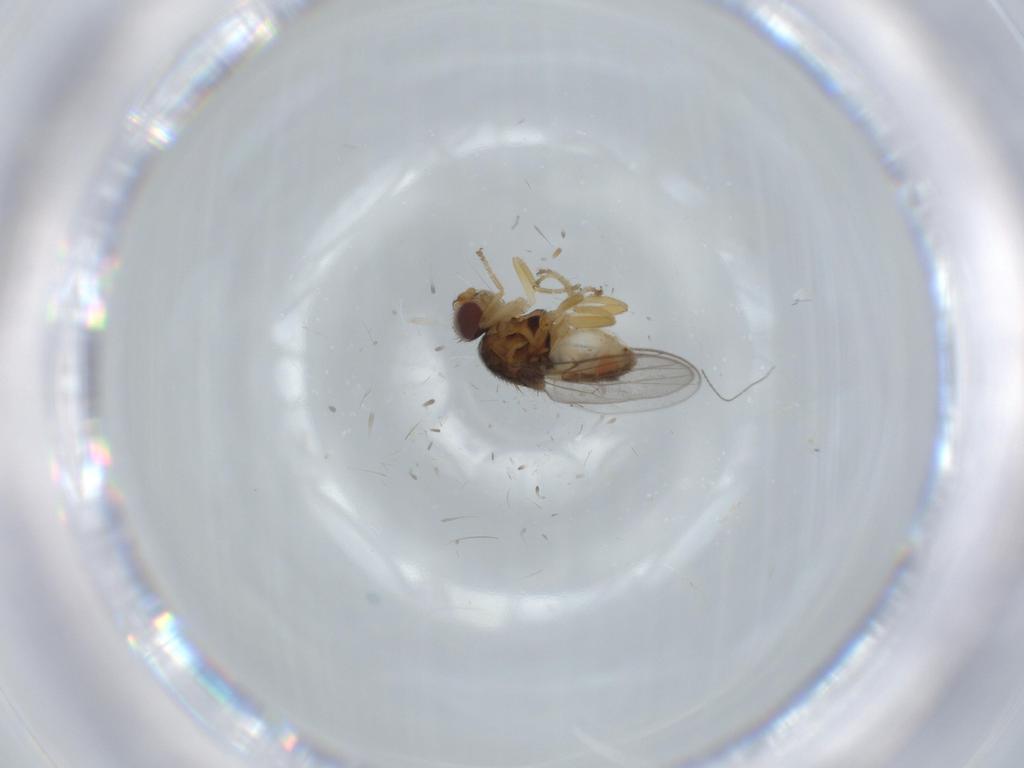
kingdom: Animalia
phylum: Arthropoda
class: Insecta
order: Diptera
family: Chloropidae
